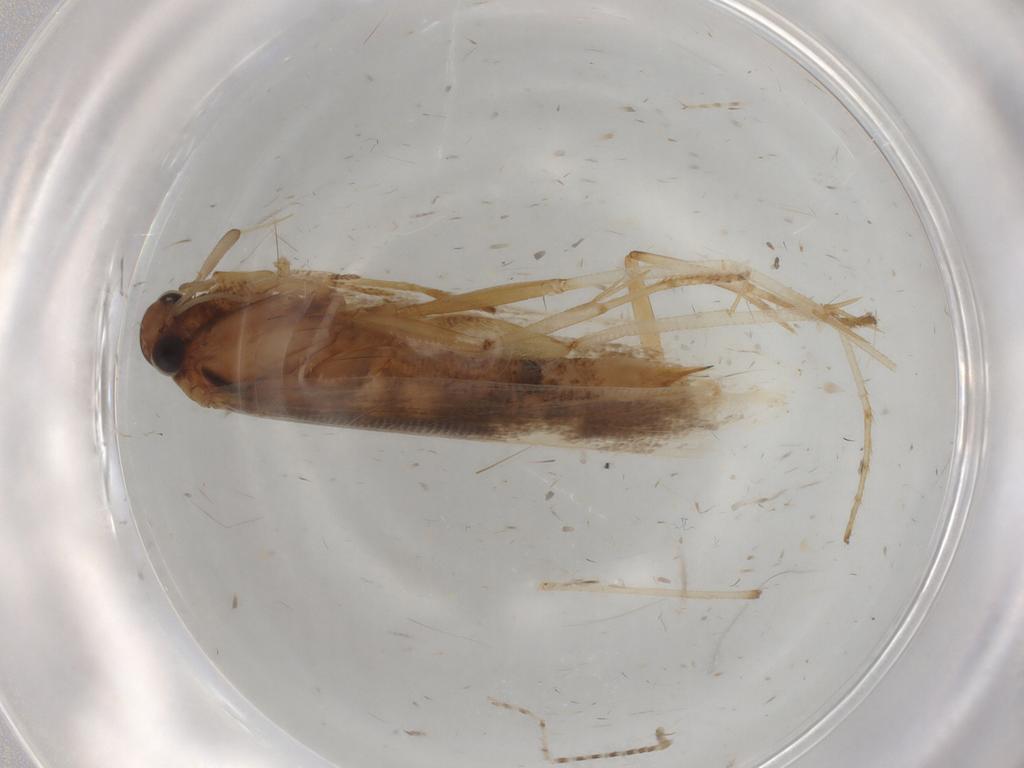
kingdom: Animalia
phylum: Arthropoda
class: Insecta
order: Lepidoptera
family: Gelechiidae
